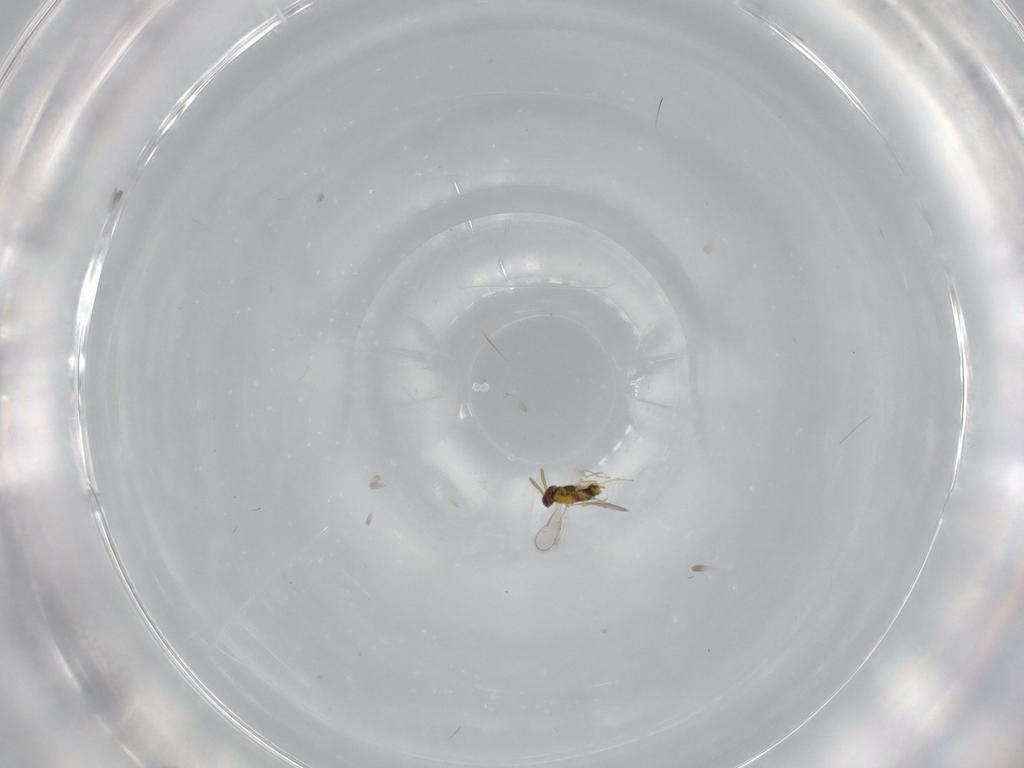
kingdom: Animalia
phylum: Arthropoda
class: Insecta
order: Hymenoptera
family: Aphelinidae
